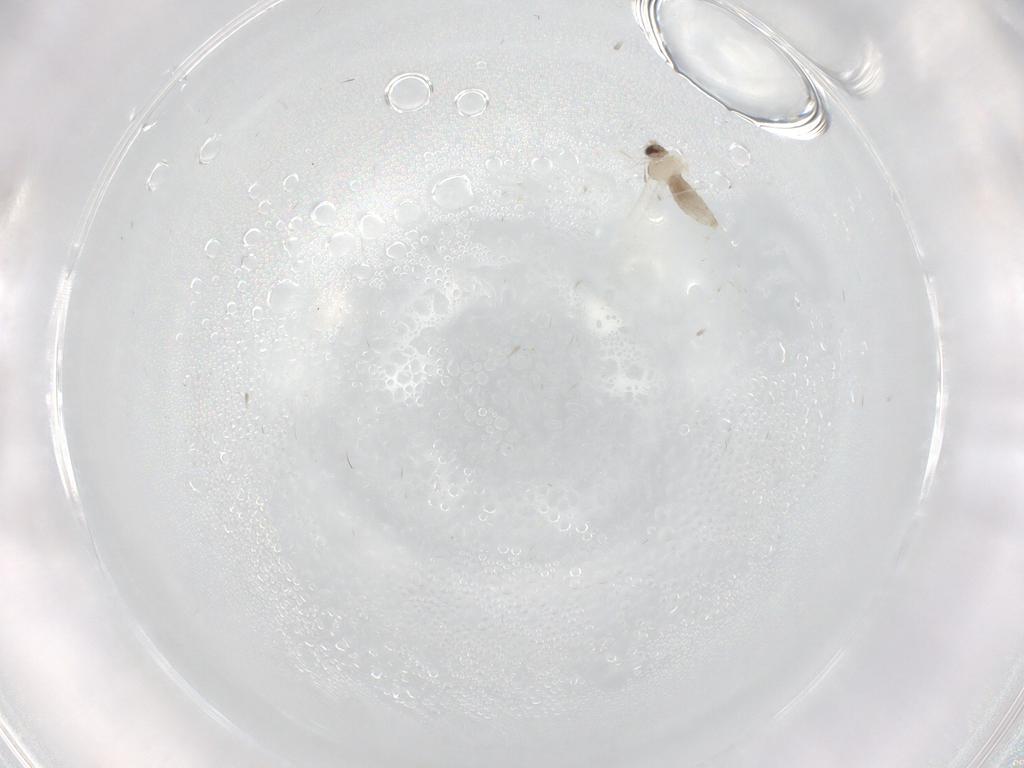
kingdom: Animalia
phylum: Arthropoda
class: Insecta
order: Diptera
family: Sciaridae
